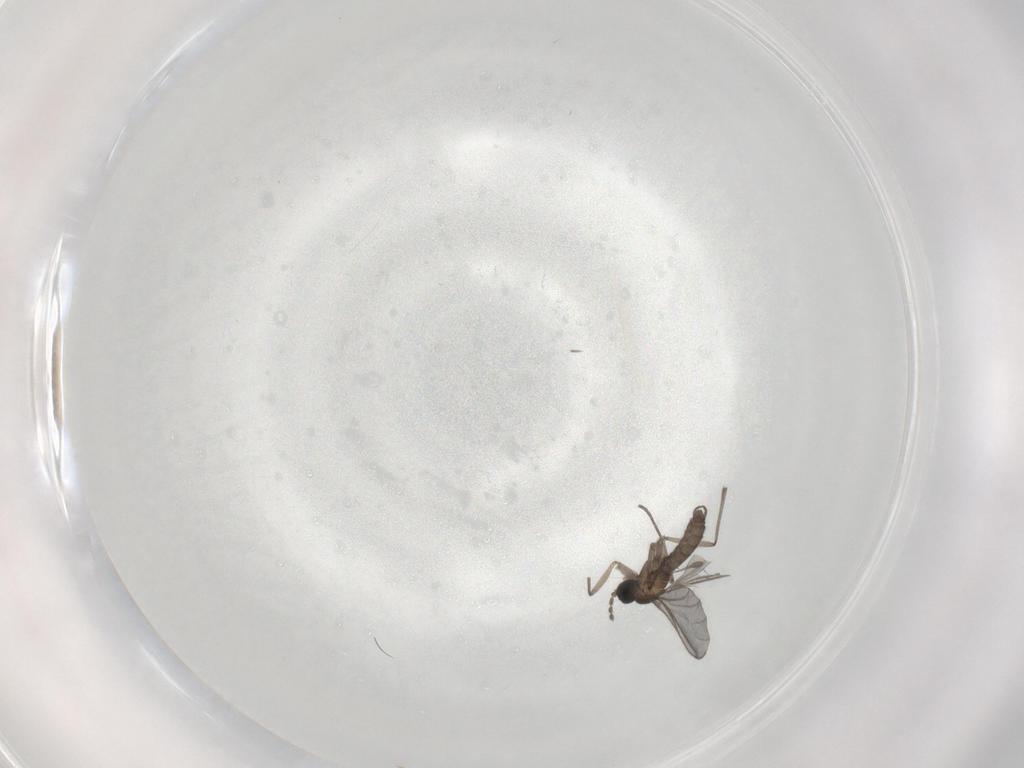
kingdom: Animalia
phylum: Arthropoda
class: Insecta
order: Diptera
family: Sciaridae
